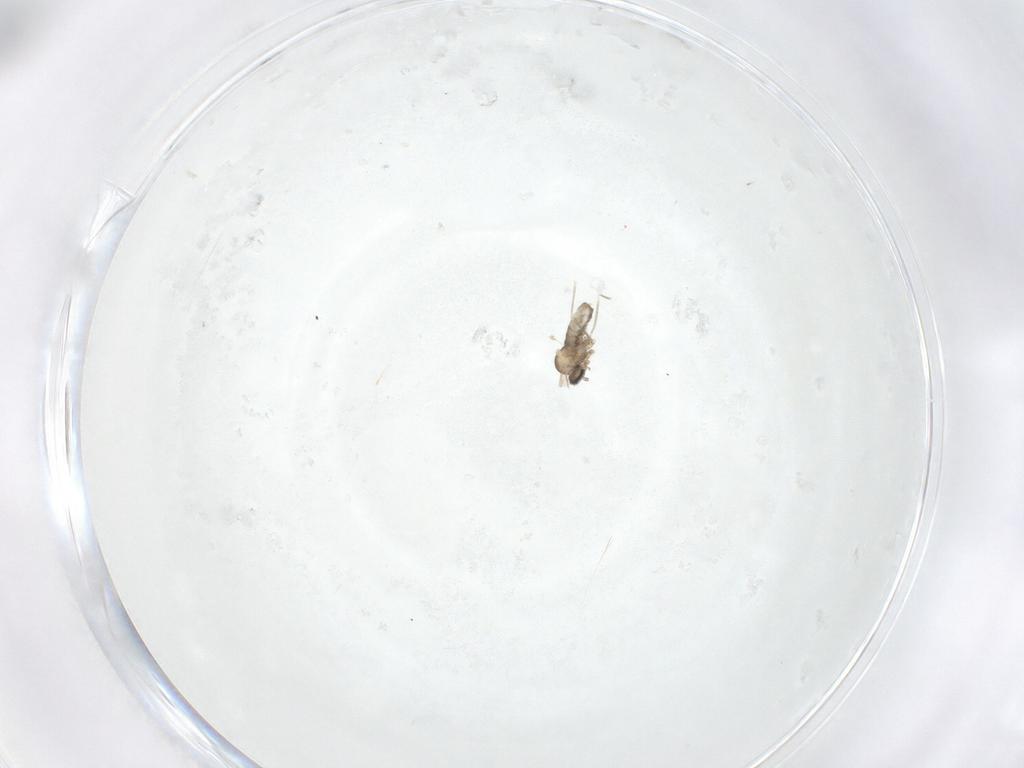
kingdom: Animalia
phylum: Arthropoda
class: Insecta
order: Diptera
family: Cecidomyiidae
